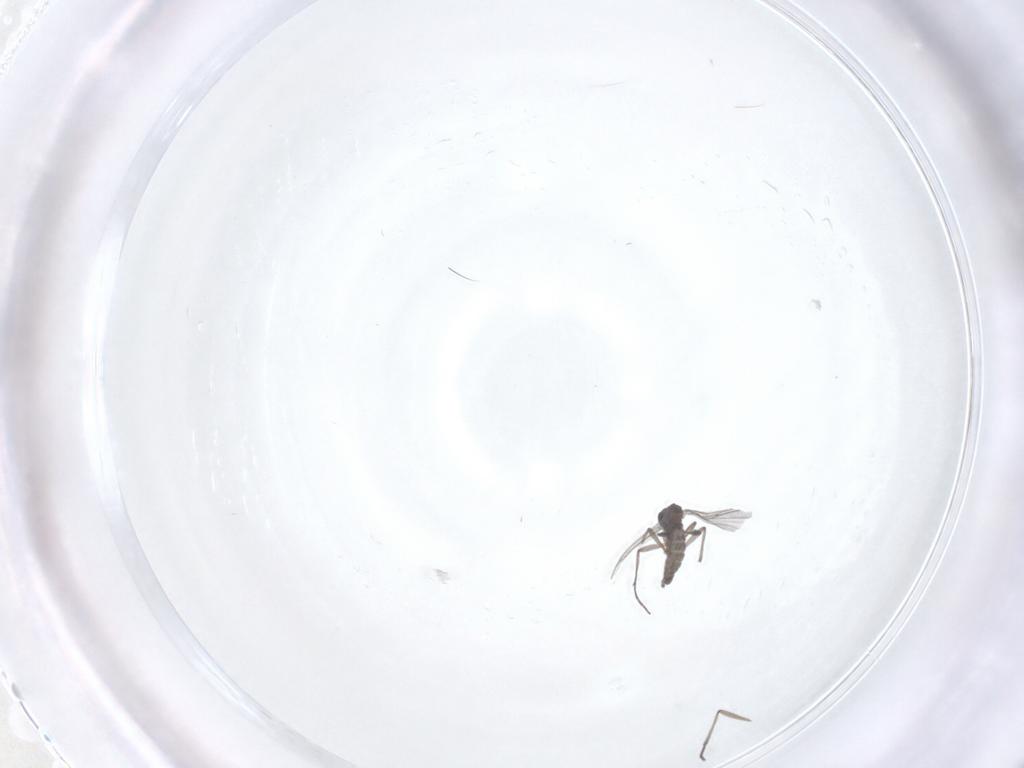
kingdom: Animalia
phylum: Arthropoda
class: Insecta
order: Diptera
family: Sciaridae
